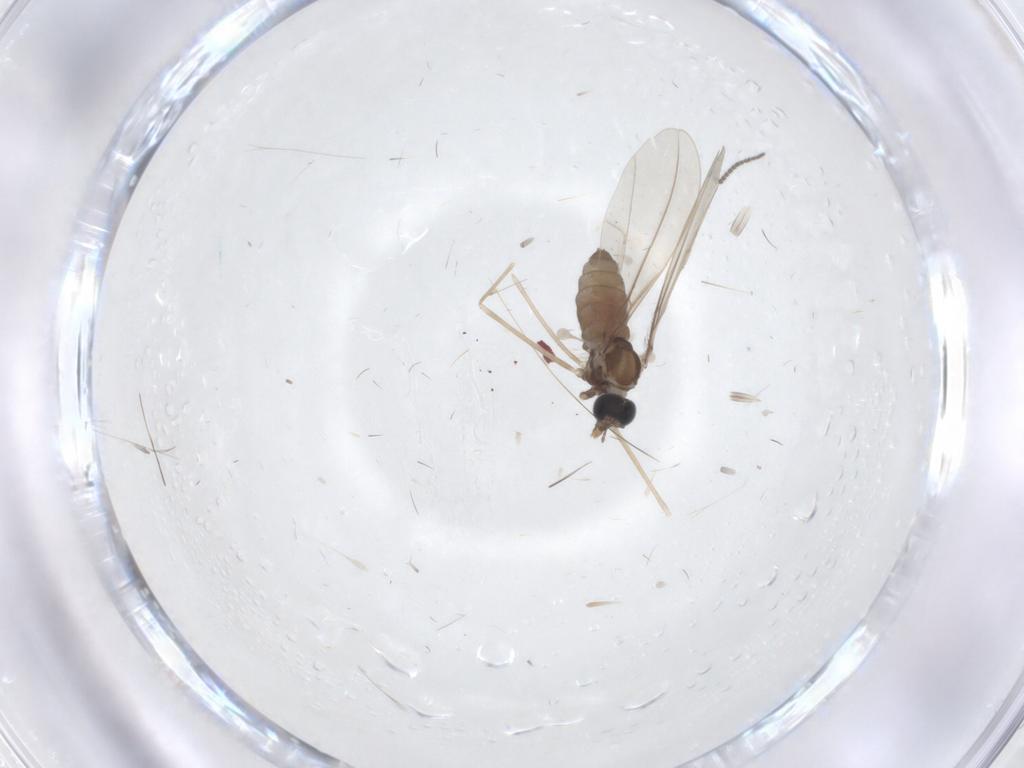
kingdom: Animalia
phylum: Arthropoda
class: Insecta
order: Diptera
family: Cecidomyiidae
